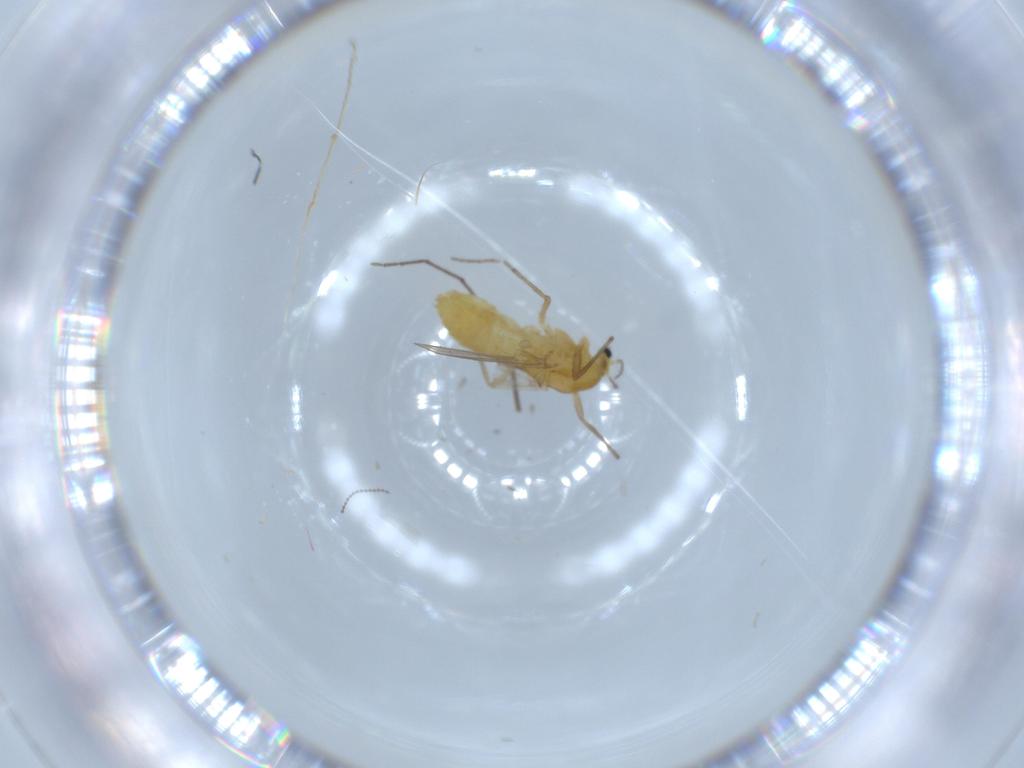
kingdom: Animalia
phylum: Arthropoda
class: Insecta
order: Diptera
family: Chironomidae
